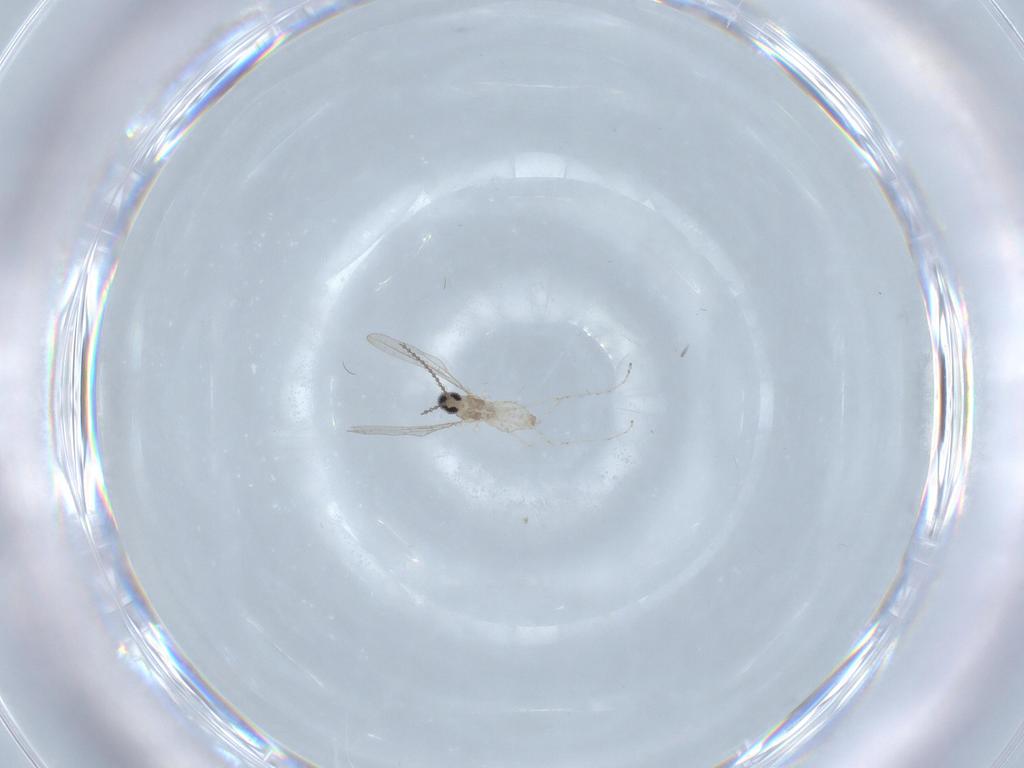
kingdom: Animalia
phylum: Arthropoda
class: Insecta
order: Diptera
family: Cecidomyiidae
